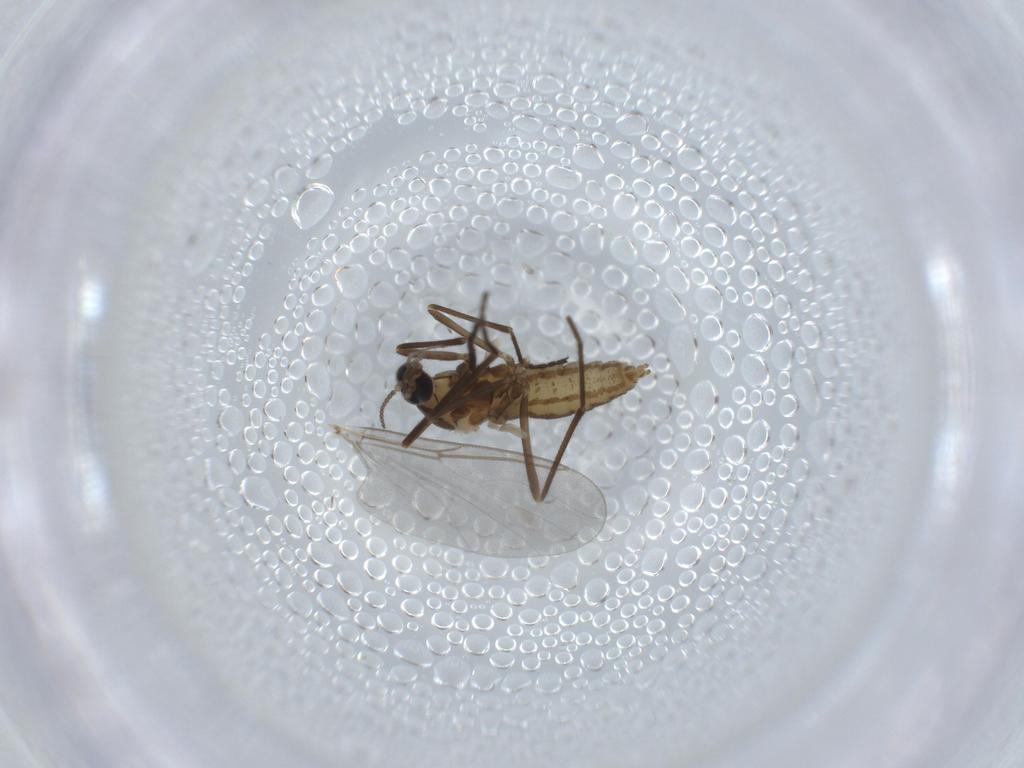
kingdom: Animalia
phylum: Arthropoda
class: Insecta
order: Diptera
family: Cecidomyiidae
